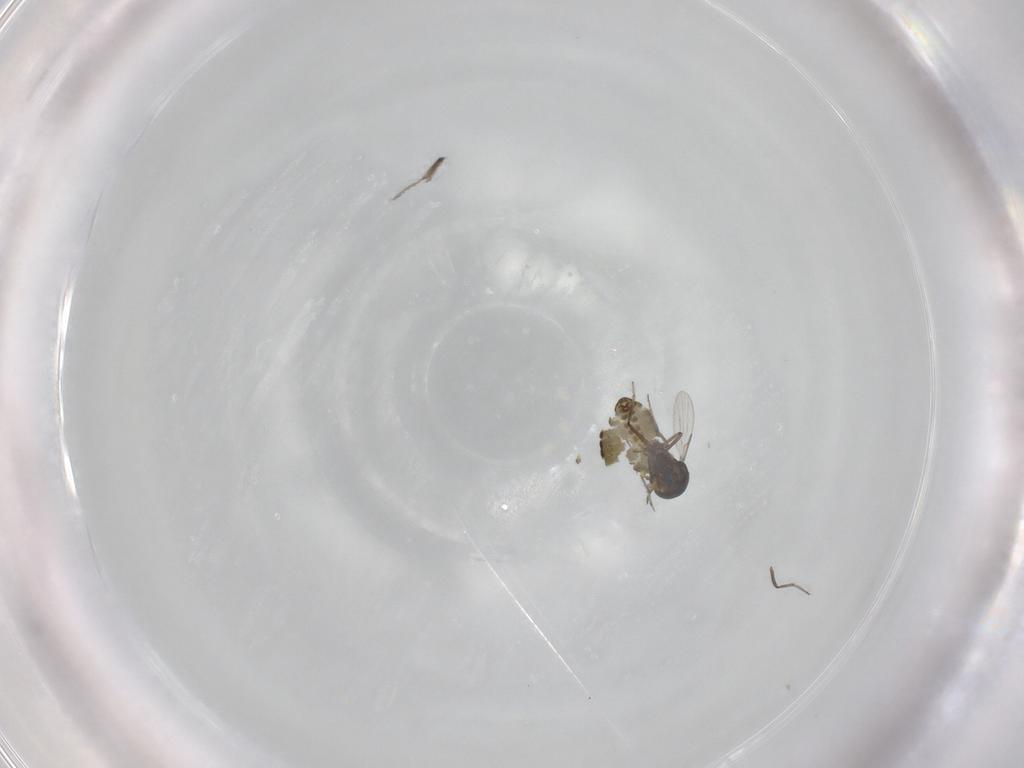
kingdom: Animalia
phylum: Arthropoda
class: Insecta
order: Diptera
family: Ceratopogonidae
